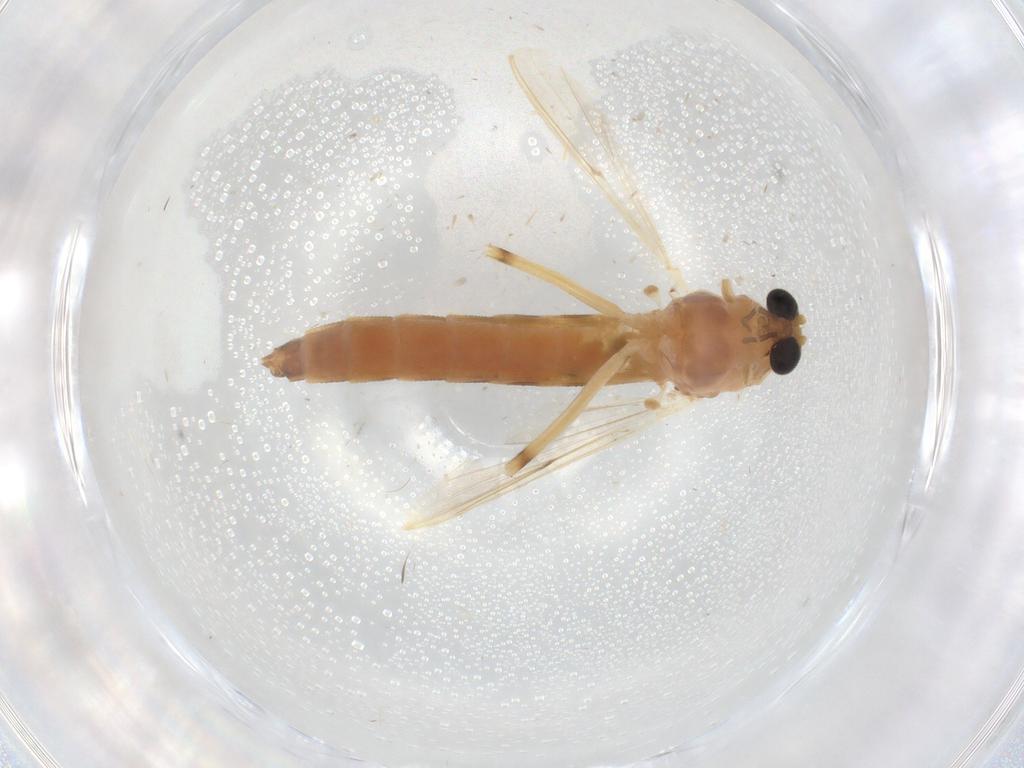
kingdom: Animalia
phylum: Arthropoda
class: Insecta
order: Diptera
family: Chironomidae
